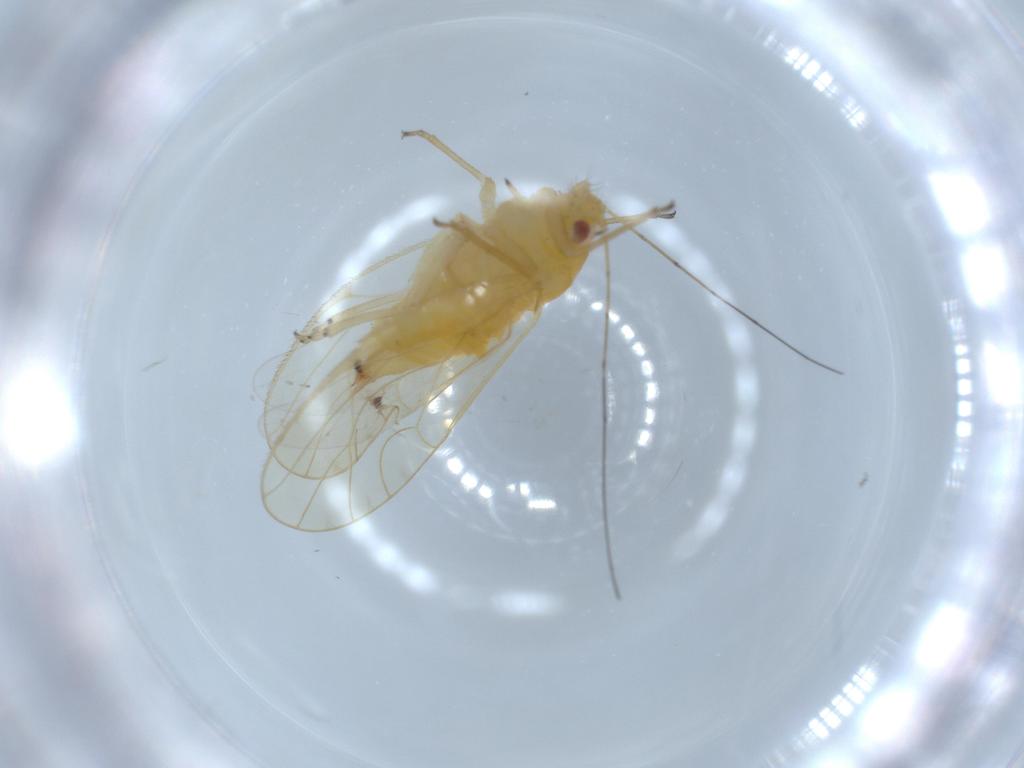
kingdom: Animalia
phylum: Arthropoda
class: Insecta
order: Hemiptera
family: Psyllidae
